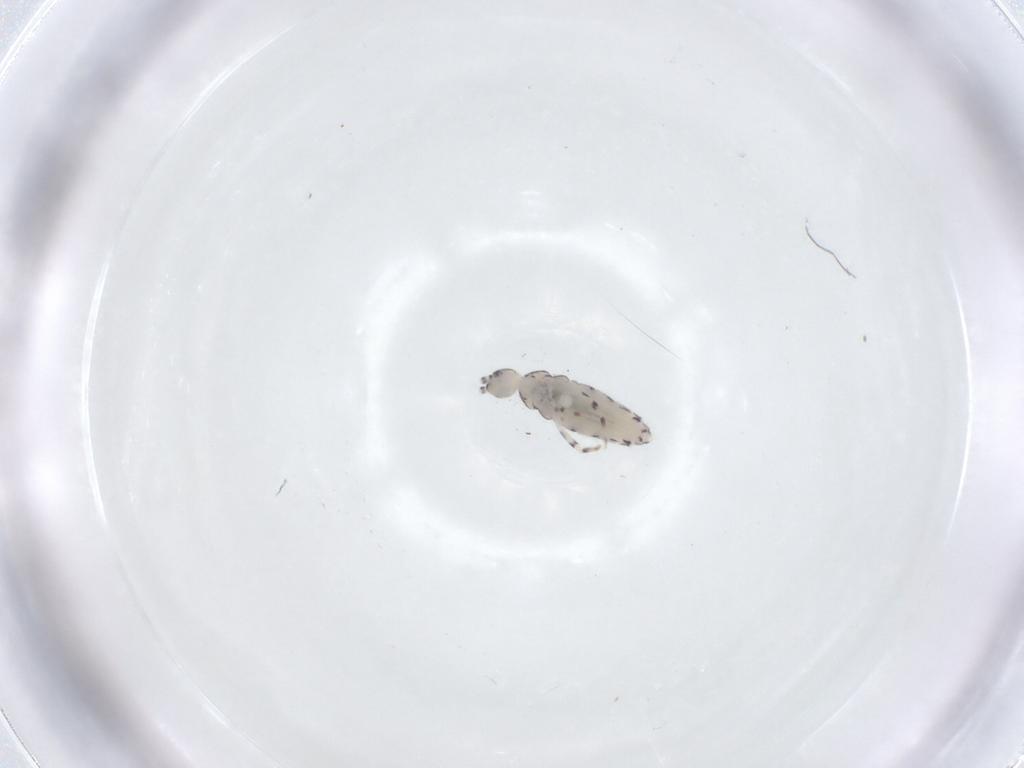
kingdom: Animalia
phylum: Arthropoda
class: Collembola
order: Entomobryomorpha
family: Entomobryidae
